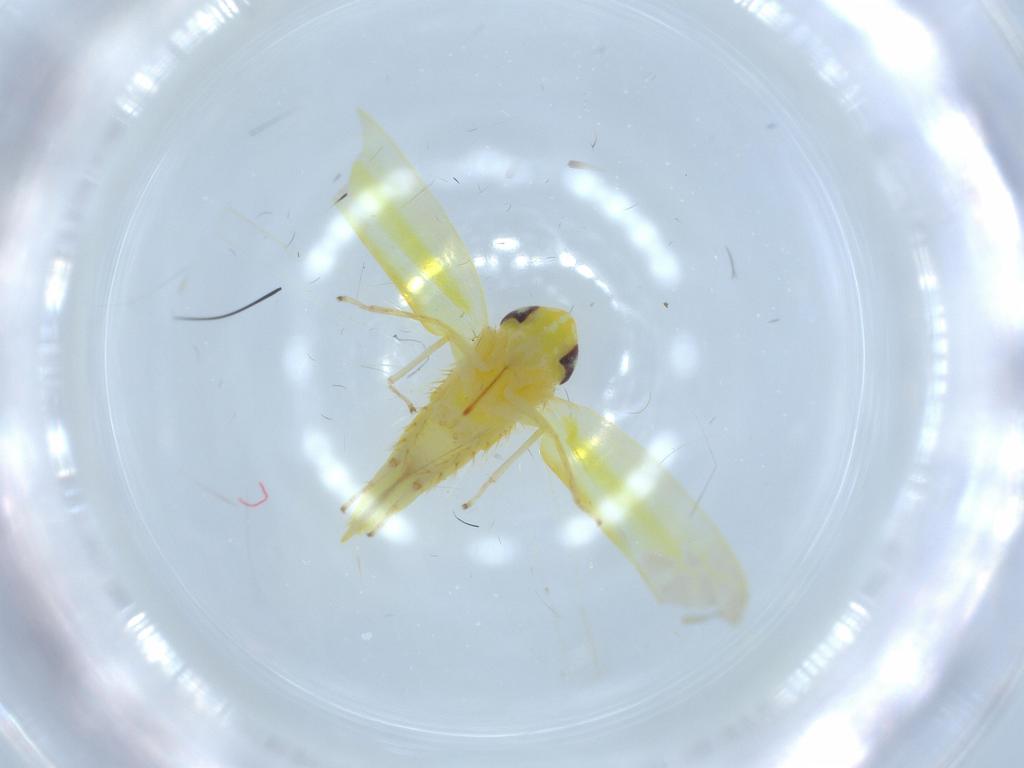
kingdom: Animalia
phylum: Arthropoda
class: Insecta
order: Hemiptera
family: Cicadellidae
